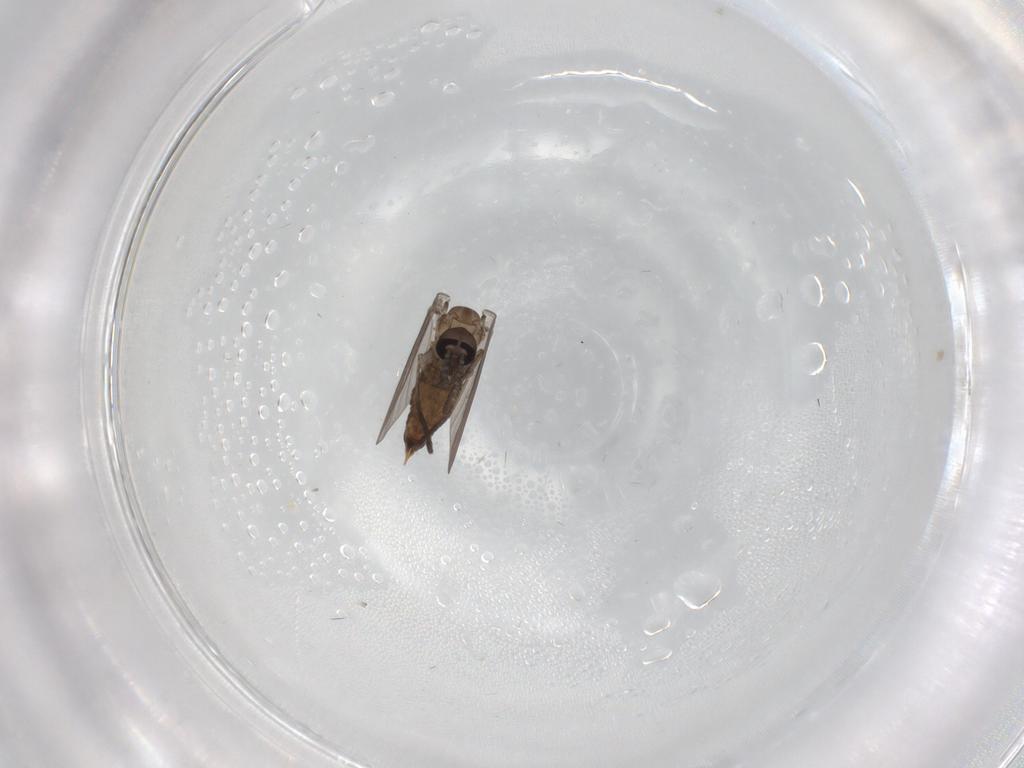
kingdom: Animalia
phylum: Arthropoda
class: Insecta
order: Diptera
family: Psychodidae
